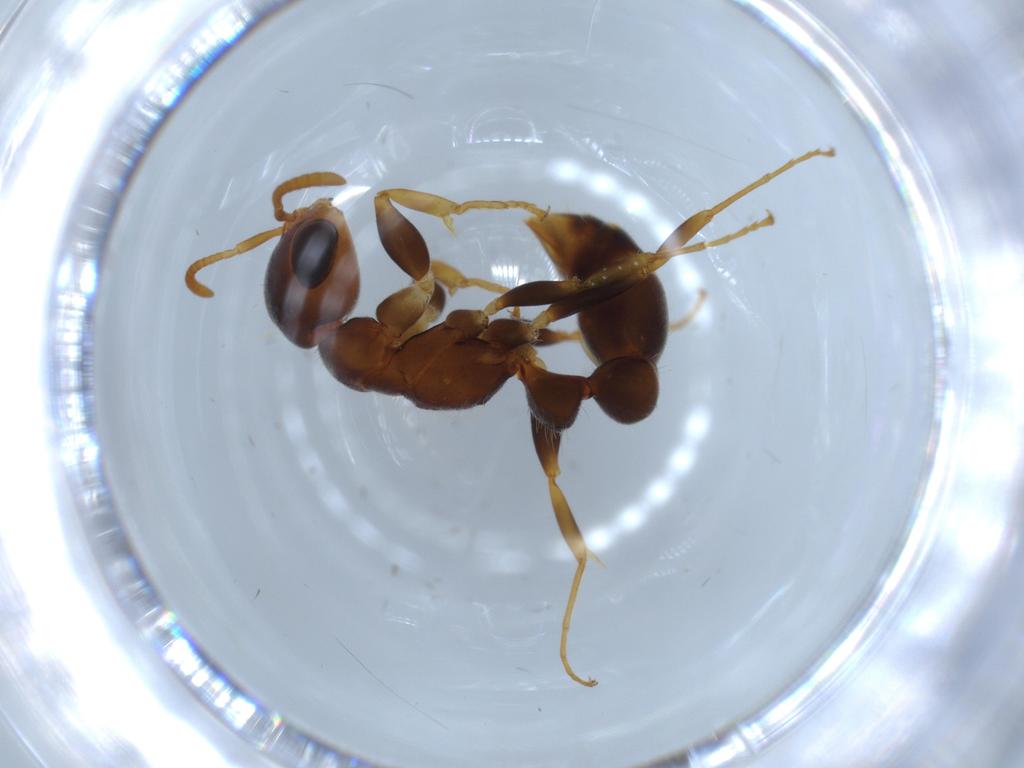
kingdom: Animalia
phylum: Arthropoda
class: Insecta
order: Hymenoptera
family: Formicidae
